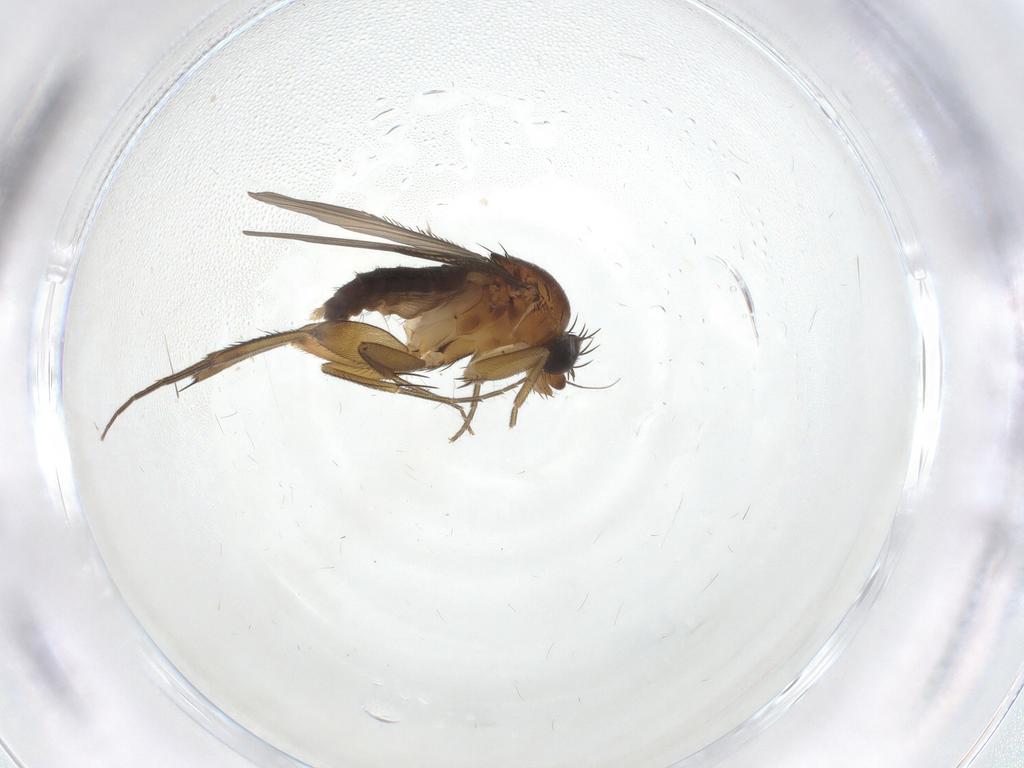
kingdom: Animalia
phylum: Arthropoda
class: Insecta
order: Diptera
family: Phoridae
